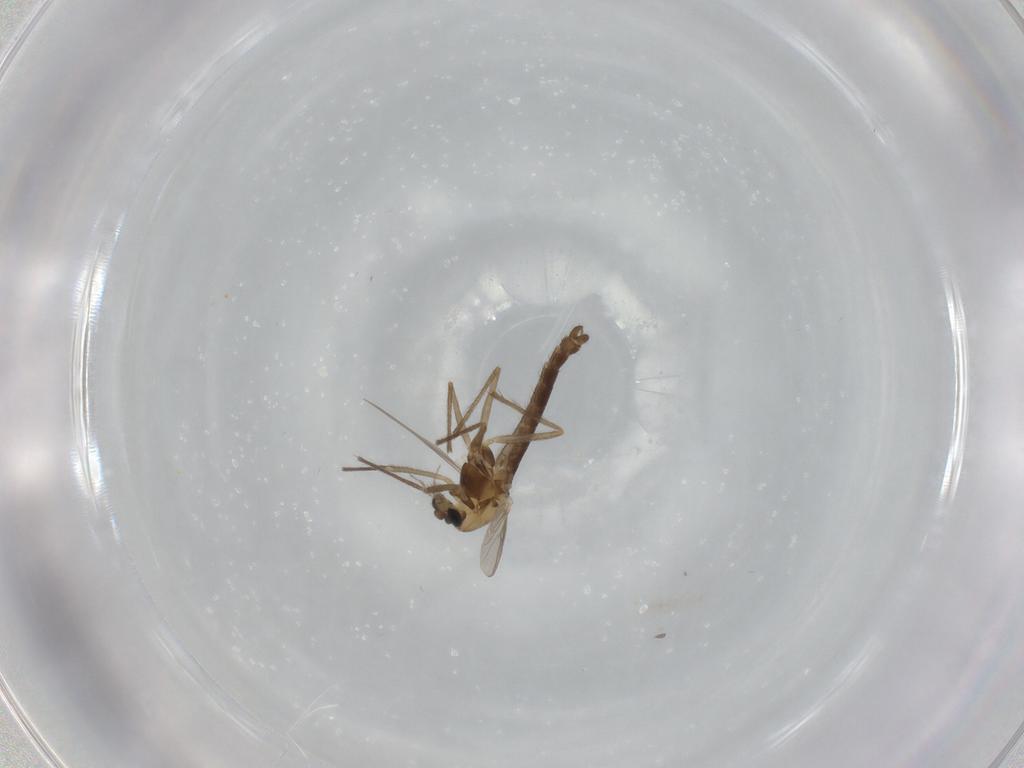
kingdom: Animalia
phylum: Arthropoda
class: Insecta
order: Diptera
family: Chironomidae
